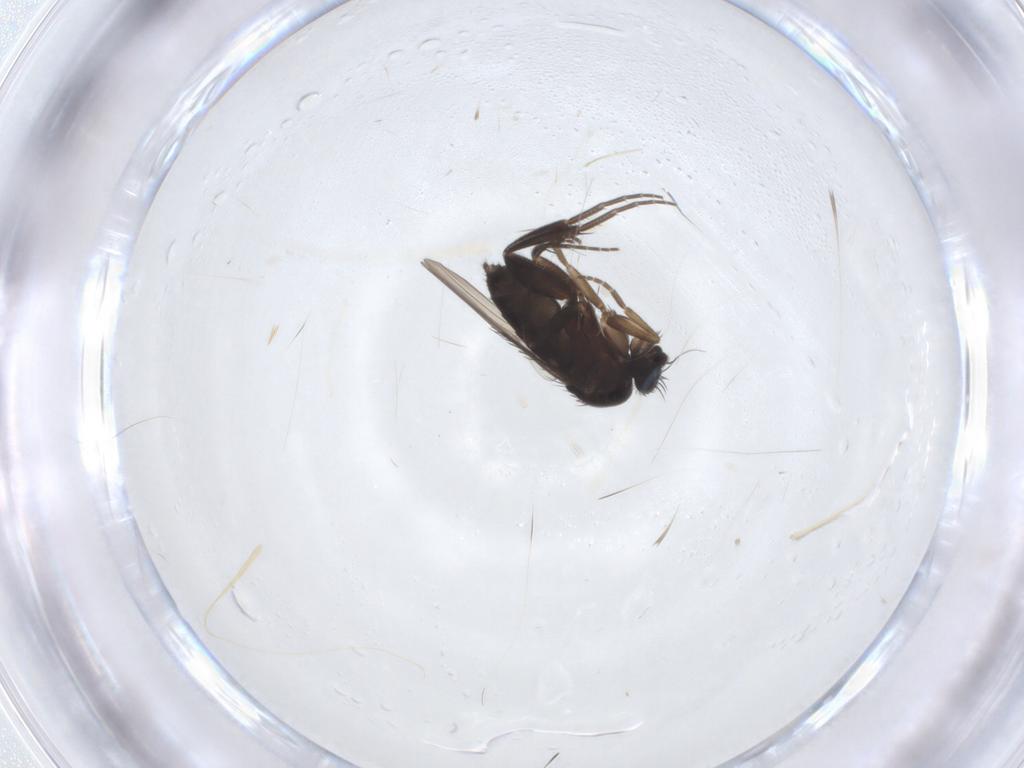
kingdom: Animalia
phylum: Arthropoda
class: Insecta
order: Diptera
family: Phoridae
